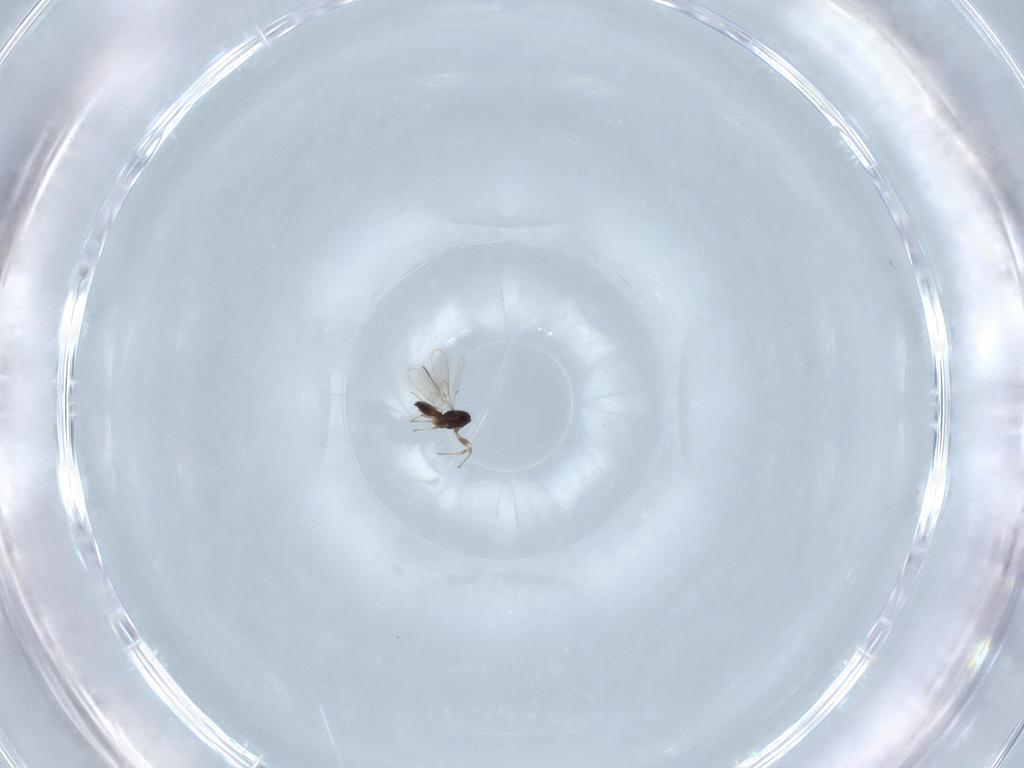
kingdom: Animalia
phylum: Arthropoda
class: Insecta
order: Hymenoptera
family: Scelionidae
